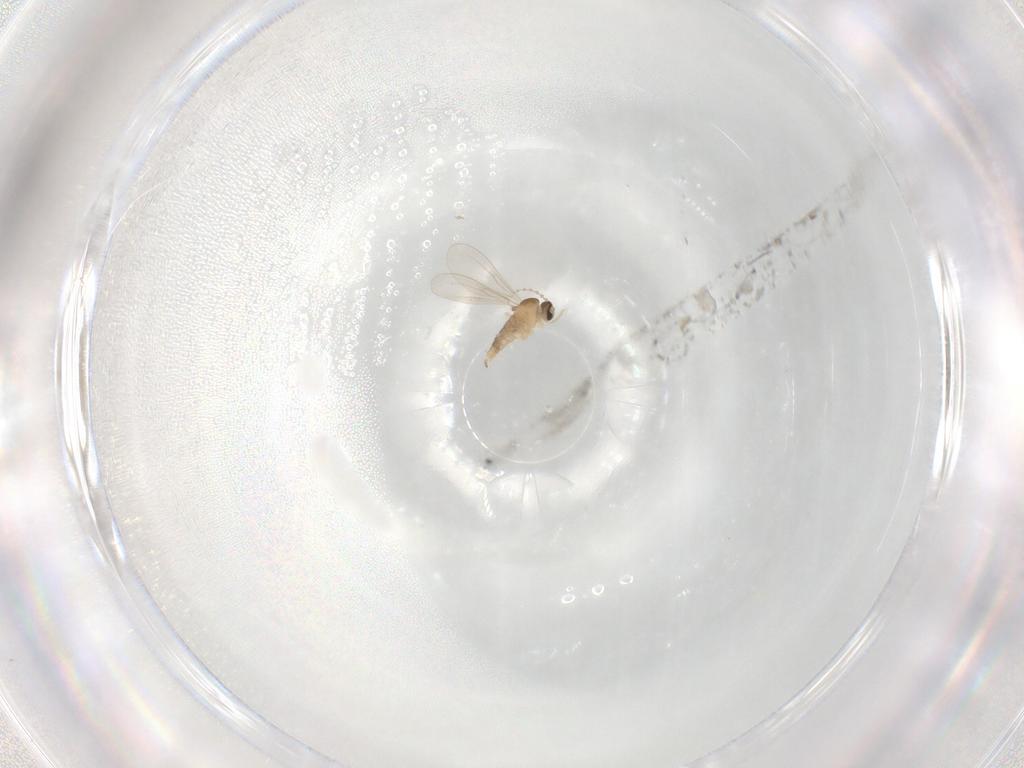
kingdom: Animalia
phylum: Arthropoda
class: Insecta
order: Diptera
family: Cecidomyiidae
